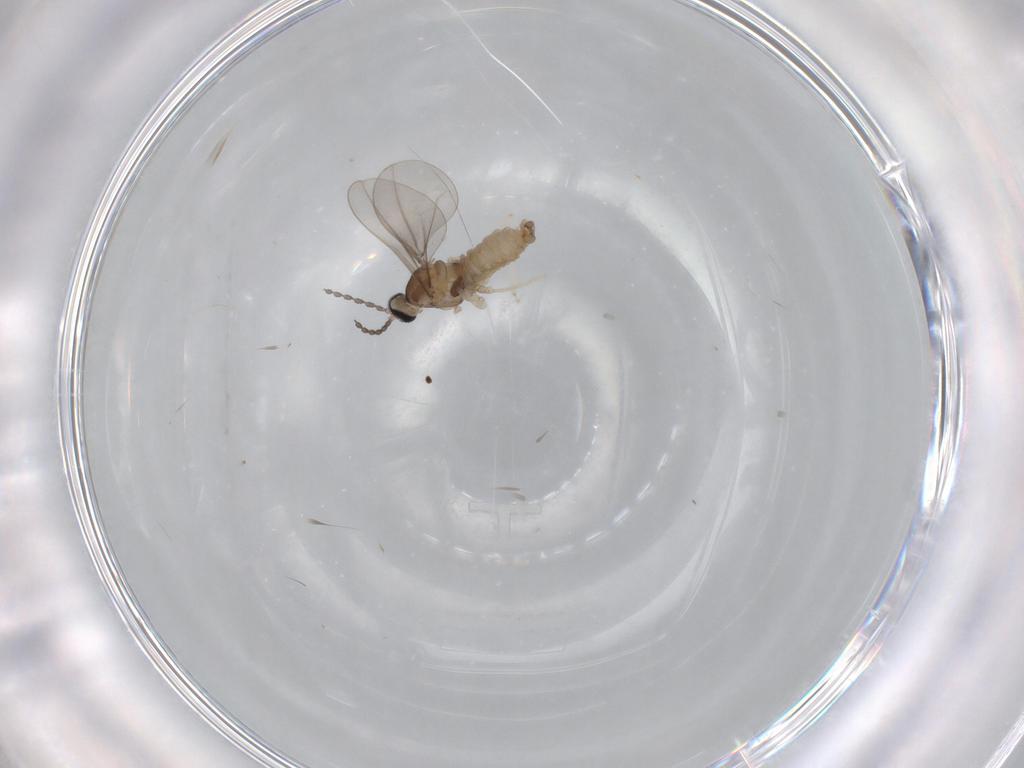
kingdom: Animalia
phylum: Arthropoda
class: Insecta
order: Diptera
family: Cecidomyiidae
